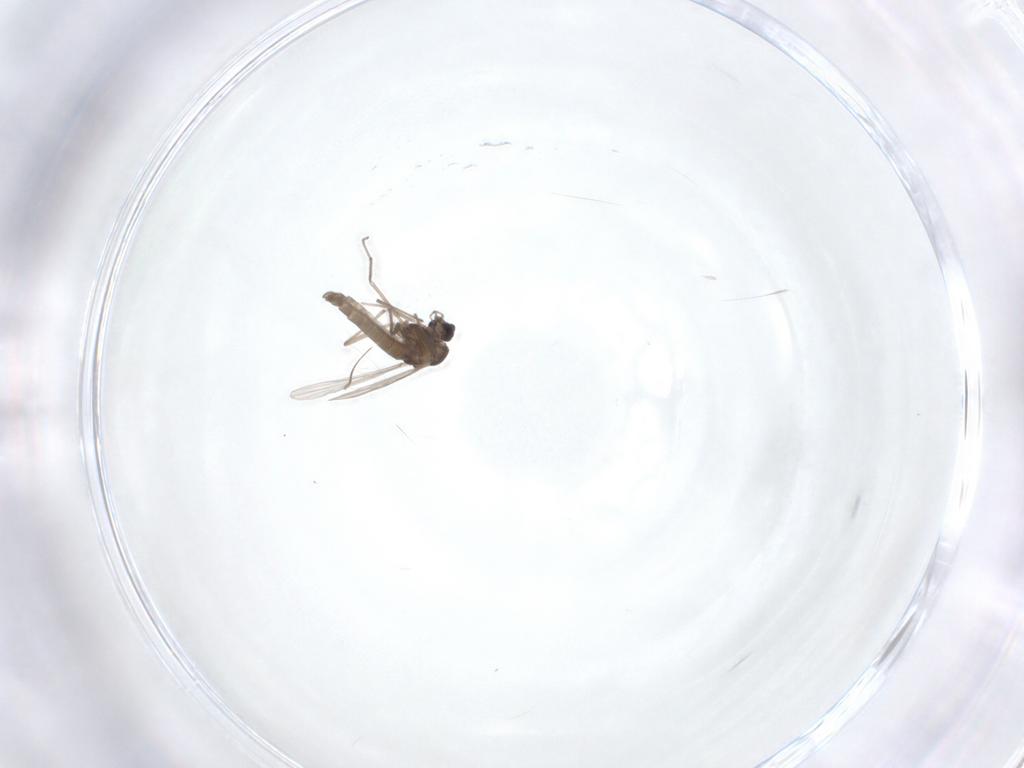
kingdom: Animalia
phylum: Arthropoda
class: Insecta
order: Diptera
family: Chironomidae
